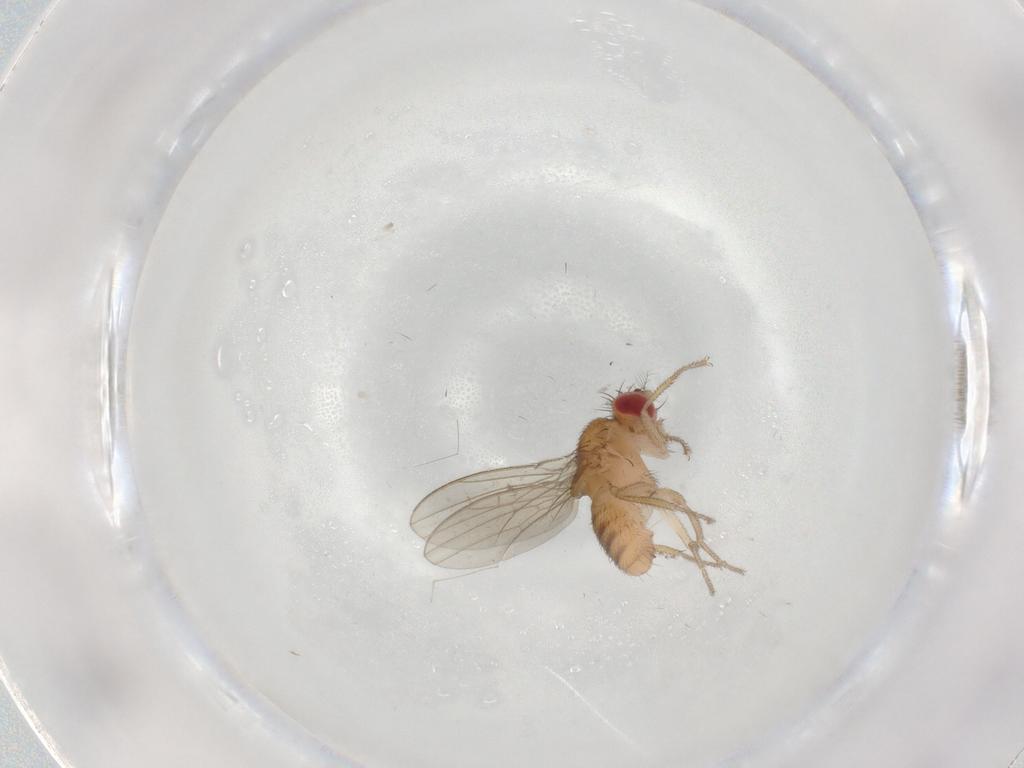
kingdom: Animalia
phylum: Arthropoda
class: Insecta
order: Diptera
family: Drosophilidae
